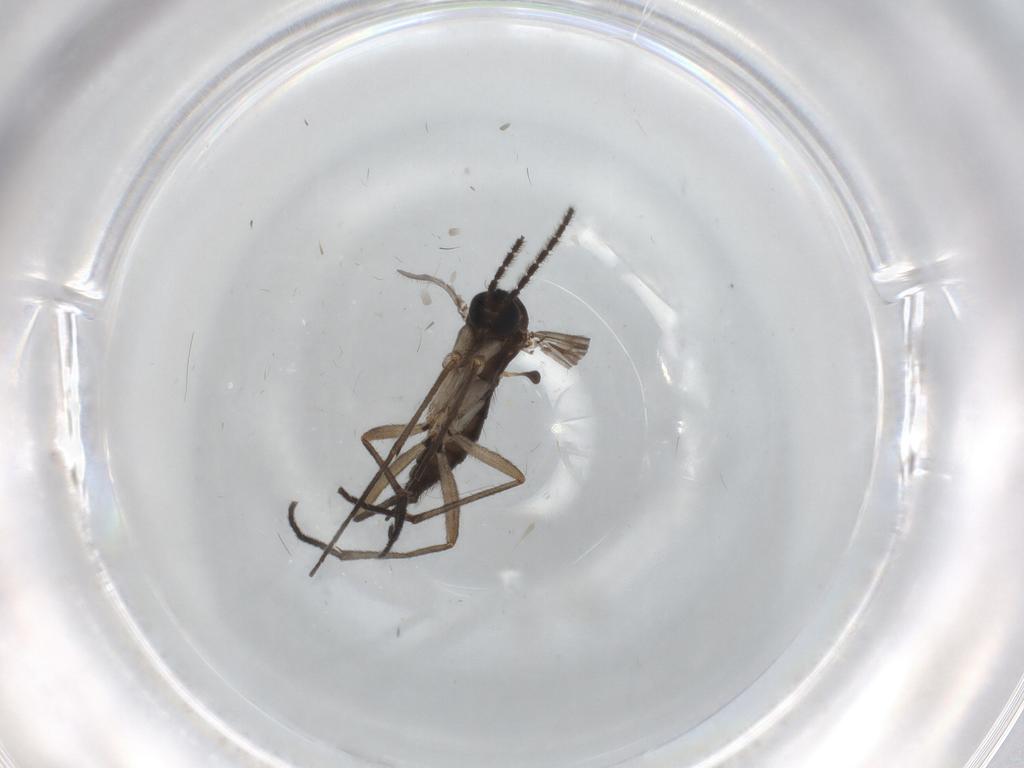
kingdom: Animalia
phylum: Arthropoda
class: Insecta
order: Diptera
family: Sciaridae
